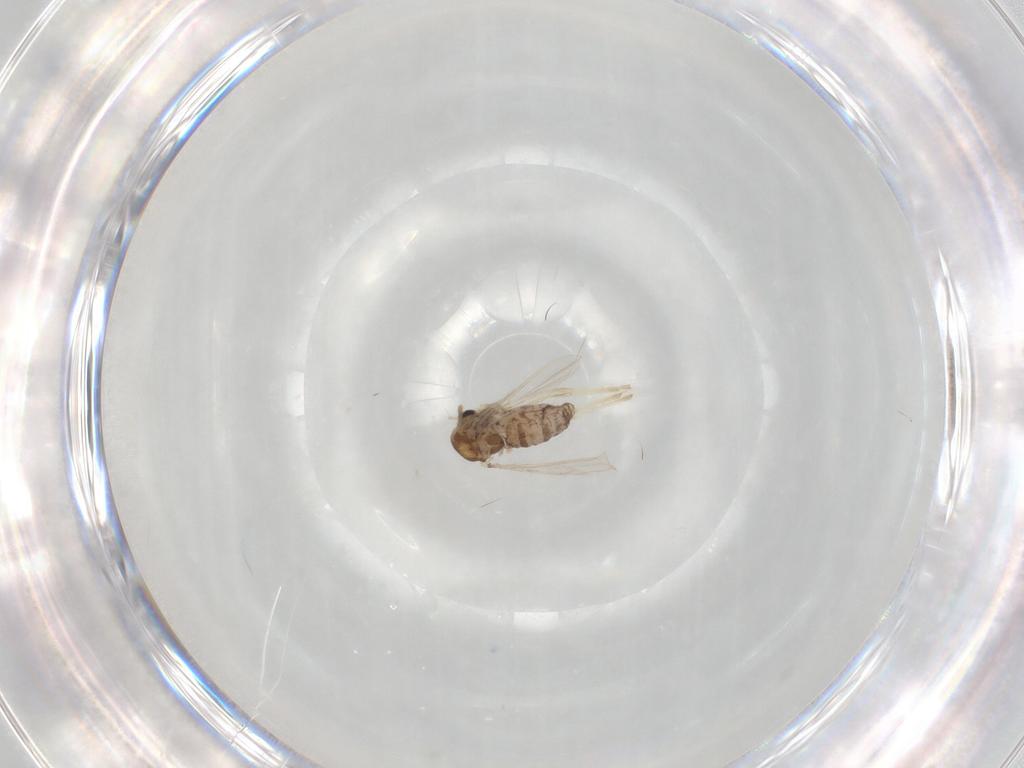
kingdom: Animalia
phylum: Arthropoda
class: Insecta
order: Diptera
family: Chironomidae
